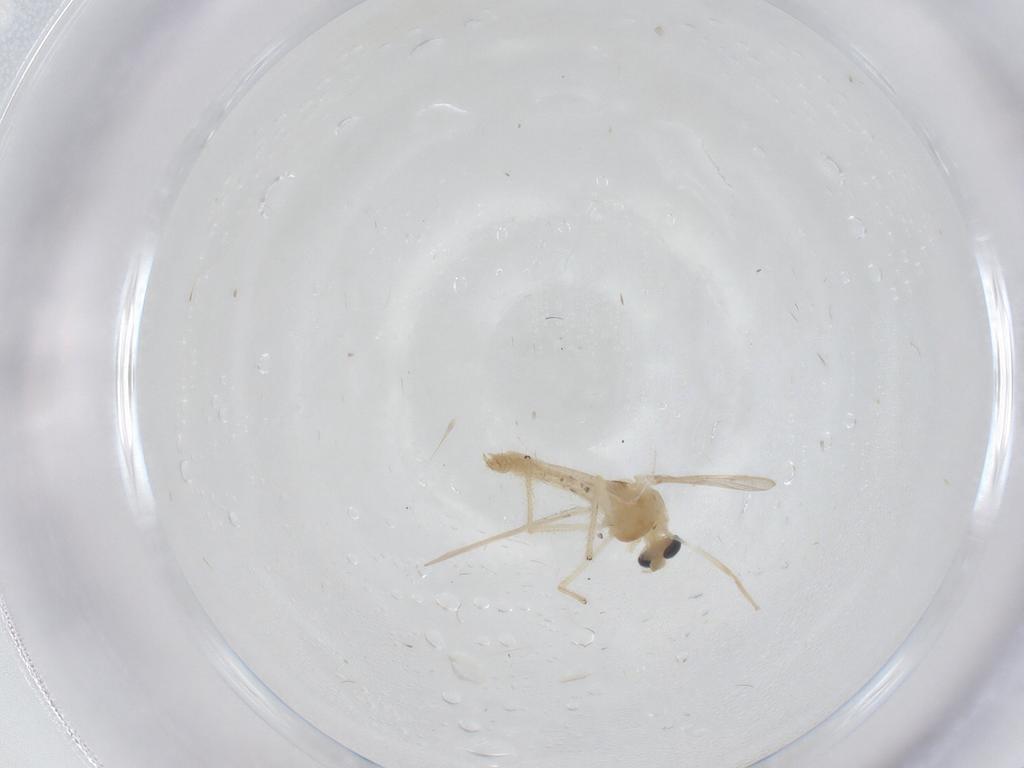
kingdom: Animalia
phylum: Arthropoda
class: Insecta
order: Diptera
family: Chironomidae
